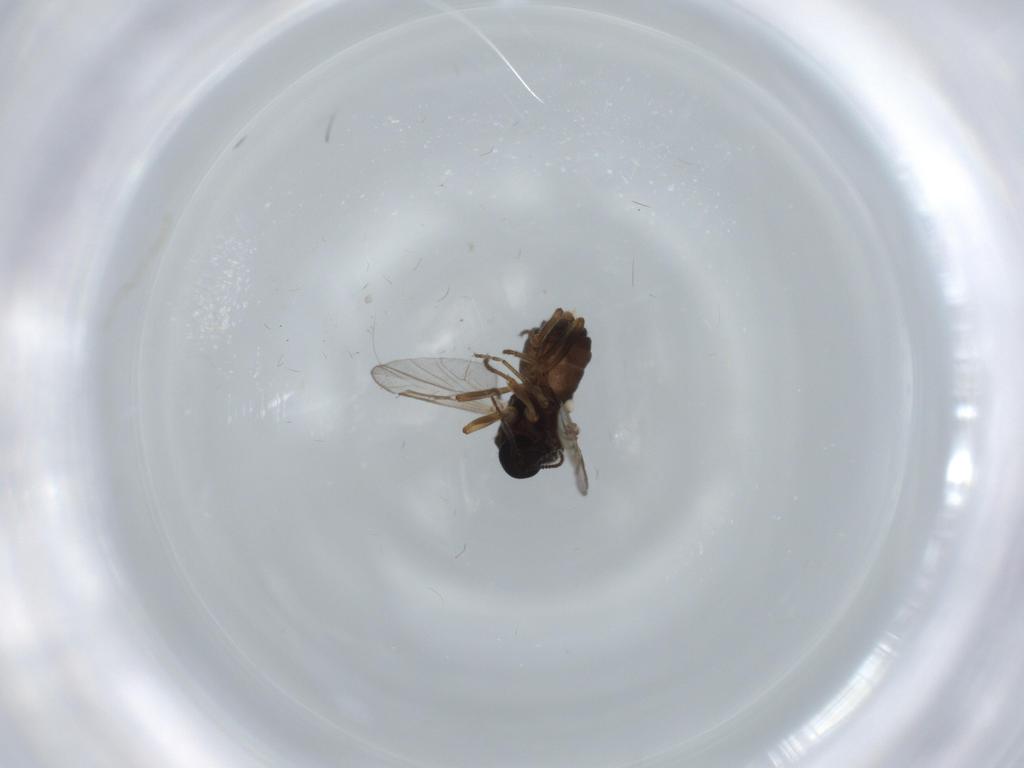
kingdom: Animalia
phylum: Arthropoda
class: Insecta
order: Diptera
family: Ceratopogonidae
